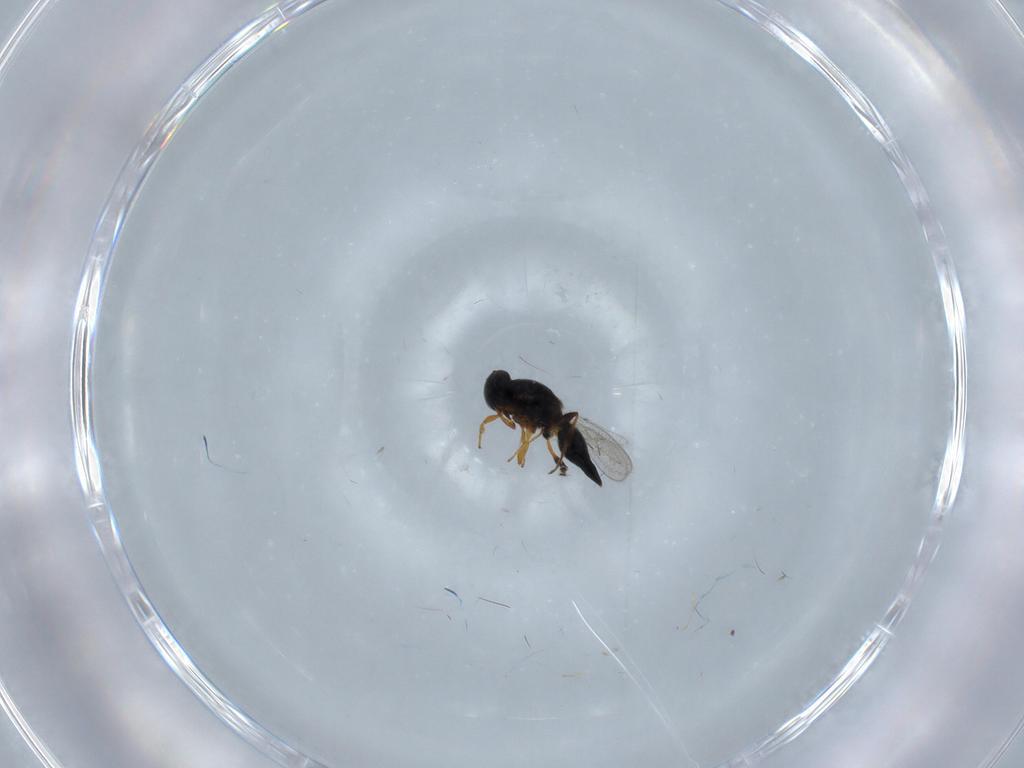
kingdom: Animalia
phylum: Arthropoda
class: Insecta
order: Hymenoptera
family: Platygastridae
